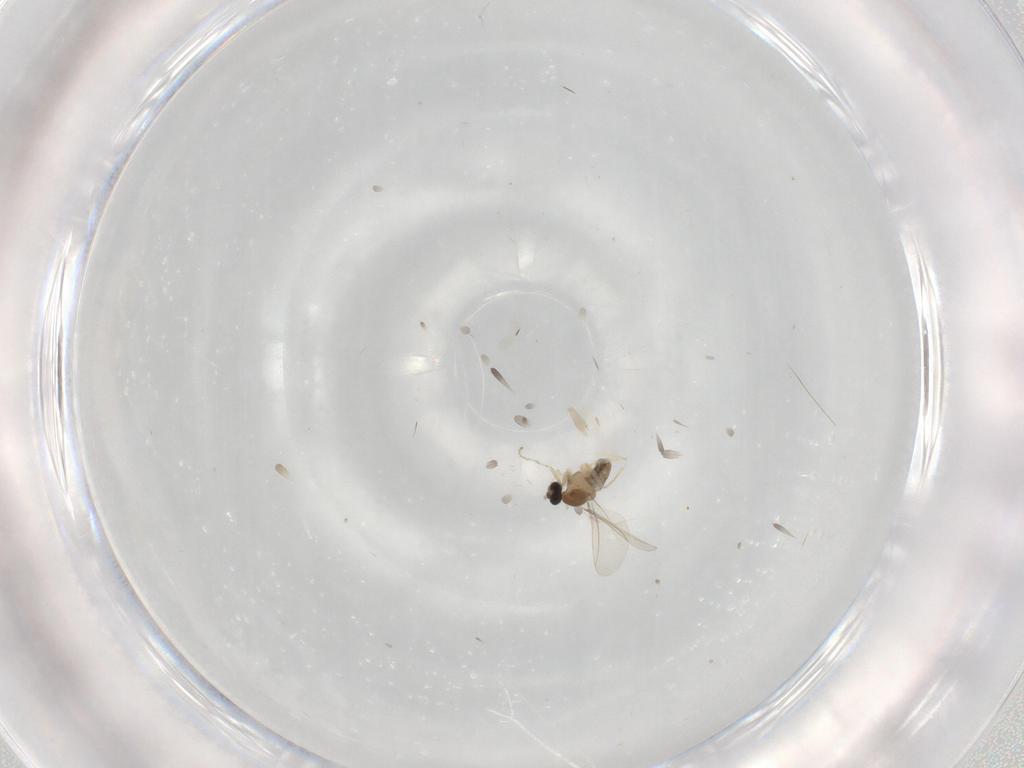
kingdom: Animalia
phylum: Arthropoda
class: Insecta
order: Diptera
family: Cecidomyiidae
